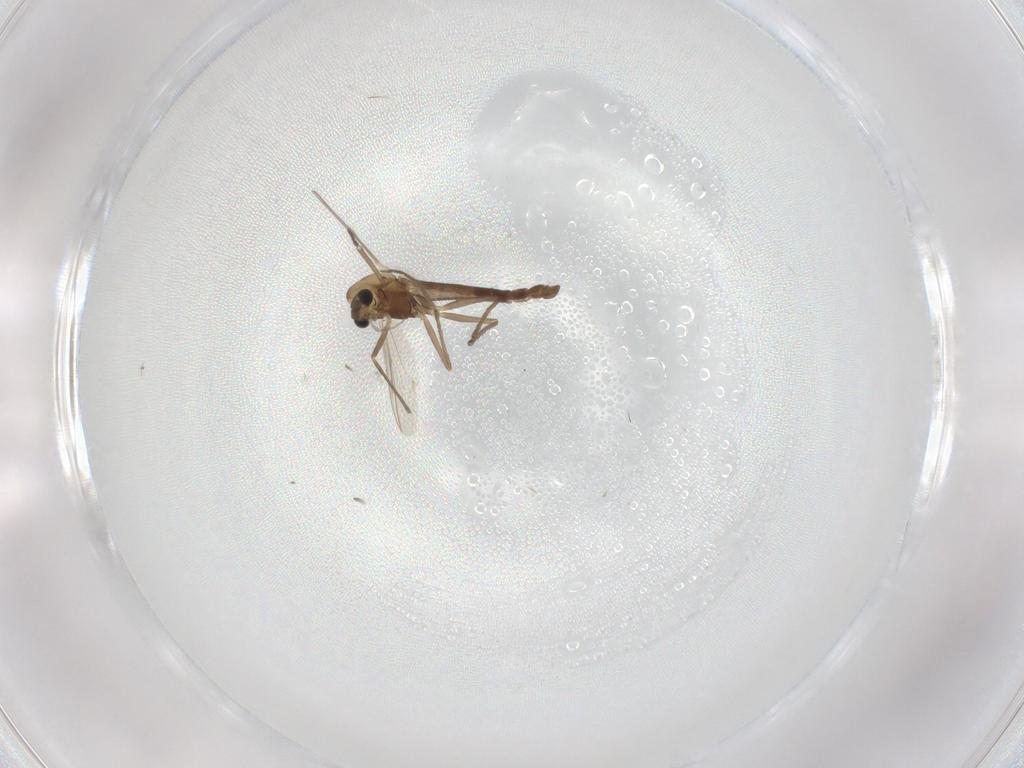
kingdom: Animalia
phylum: Arthropoda
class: Insecta
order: Diptera
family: Chironomidae
